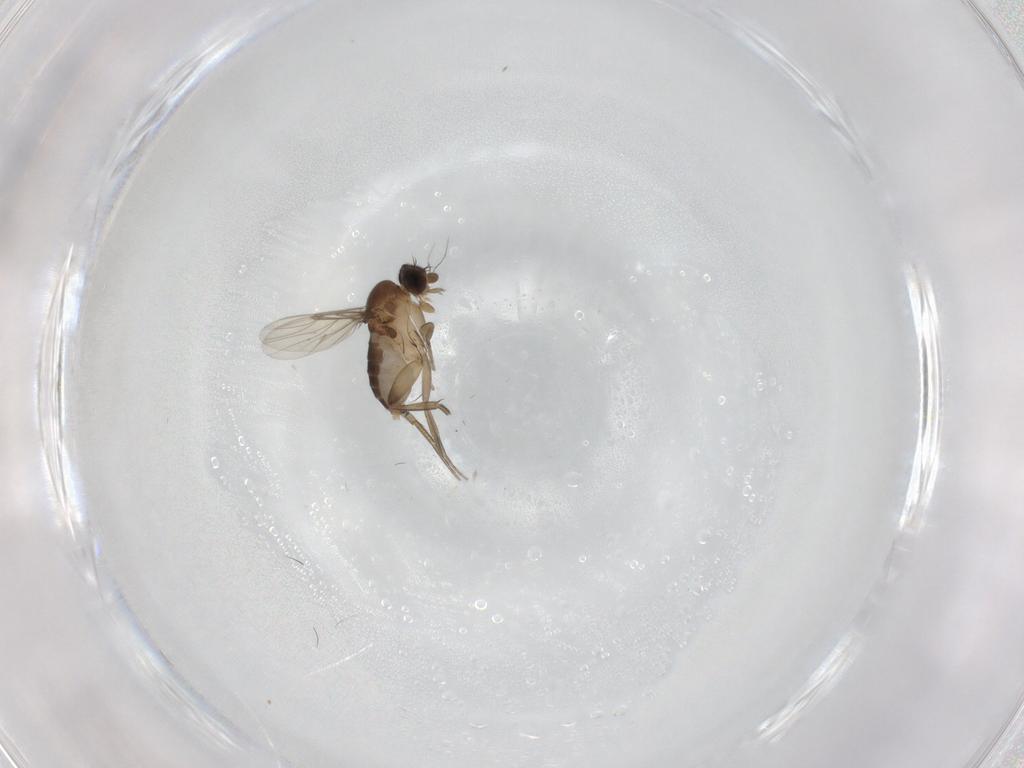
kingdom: Animalia
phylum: Arthropoda
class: Insecta
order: Diptera
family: Phoridae
